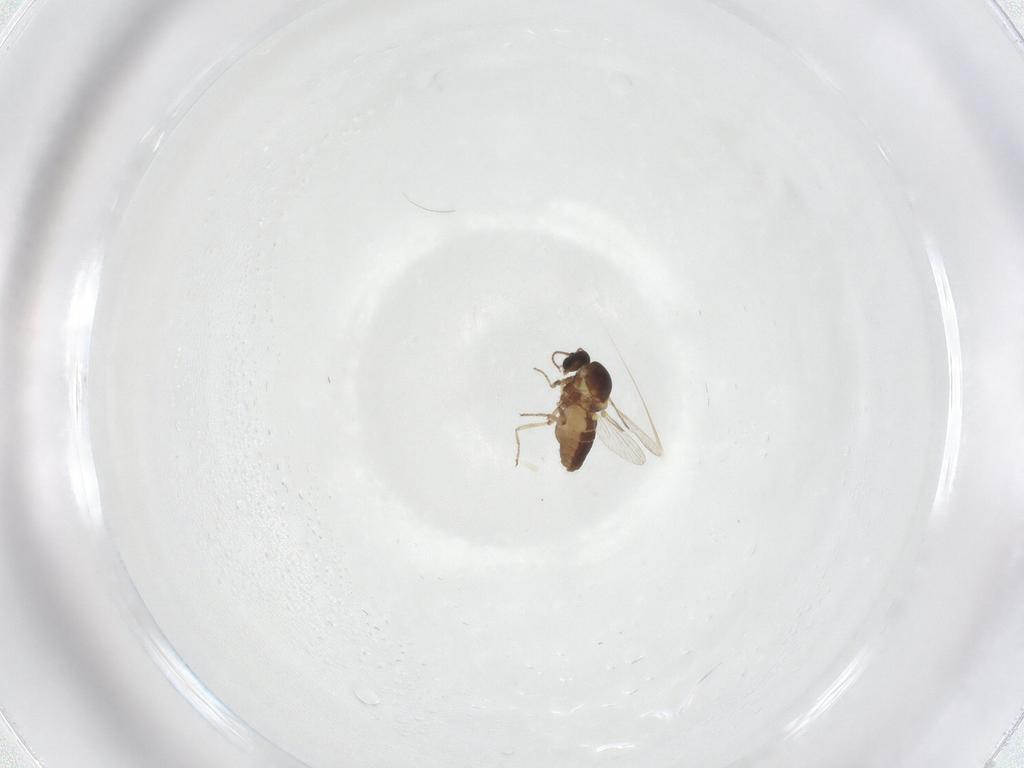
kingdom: Animalia
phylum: Arthropoda
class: Insecta
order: Diptera
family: Ceratopogonidae
